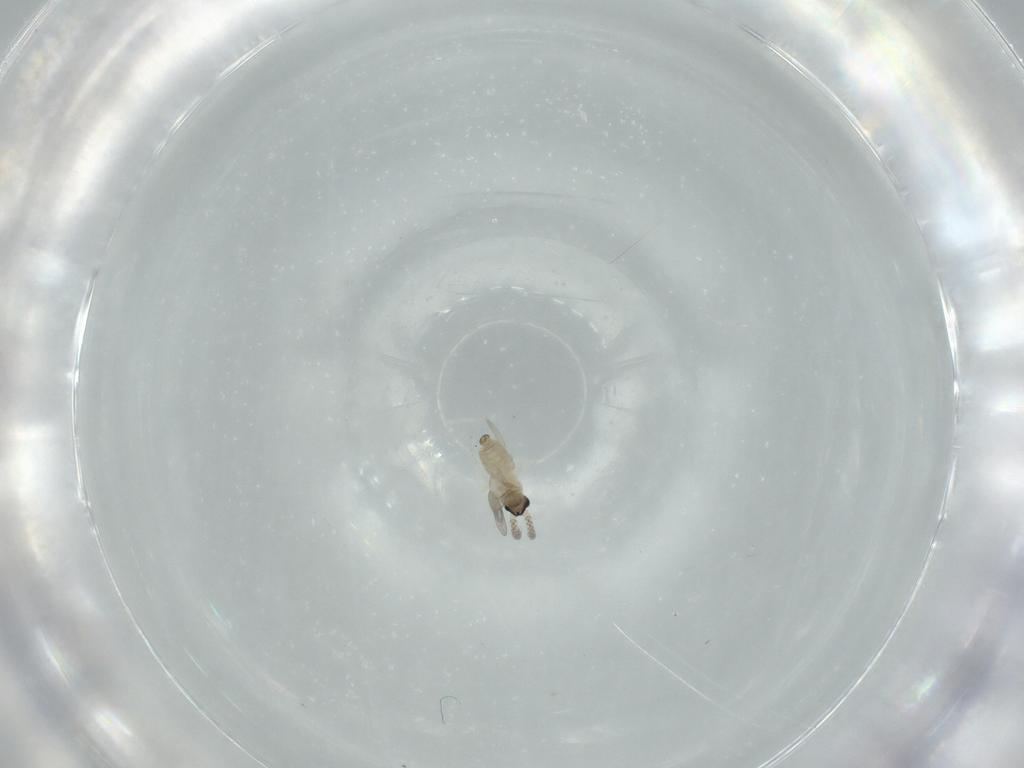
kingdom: Animalia
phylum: Arthropoda
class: Insecta
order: Diptera
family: Cecidomyiidae
